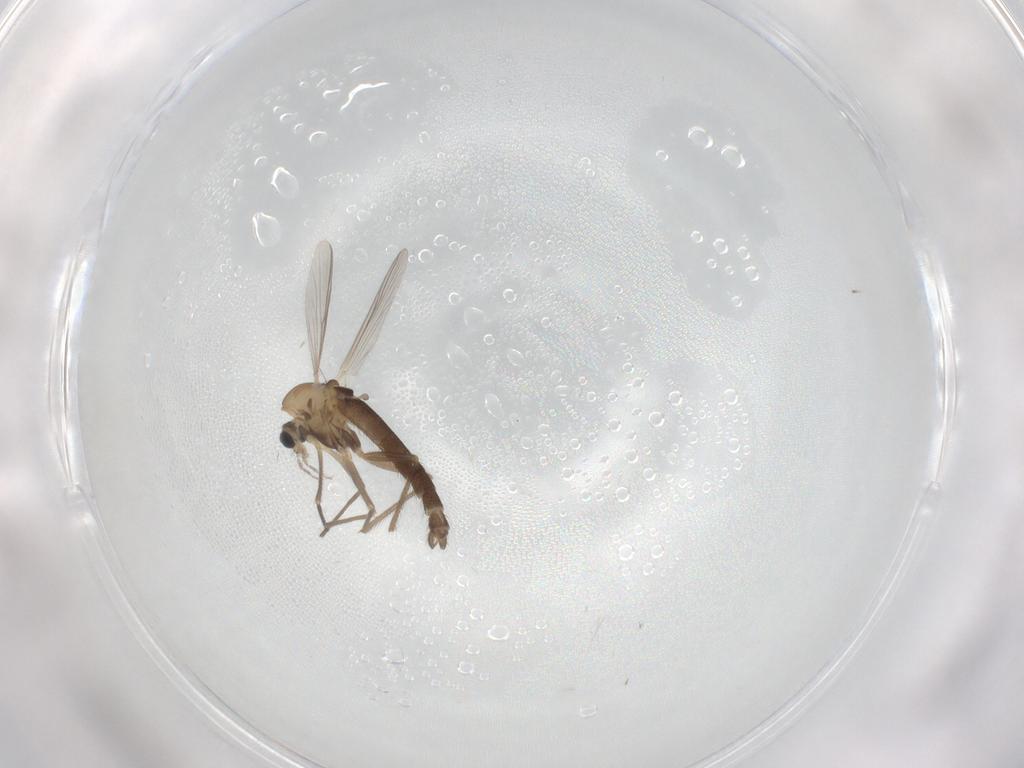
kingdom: Animalia
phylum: Arthropoda
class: Insecta
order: Diptera
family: Chironomidae
